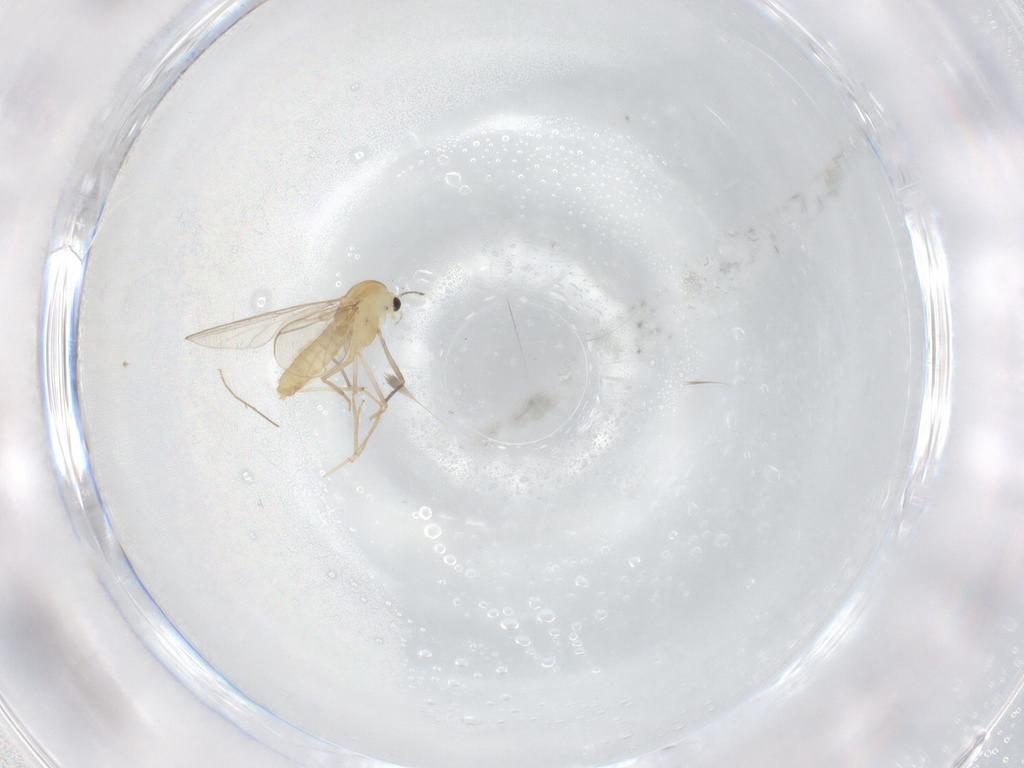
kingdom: Animalia
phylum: Arthropoda
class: Insecta
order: Diptera
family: Chironomidae
